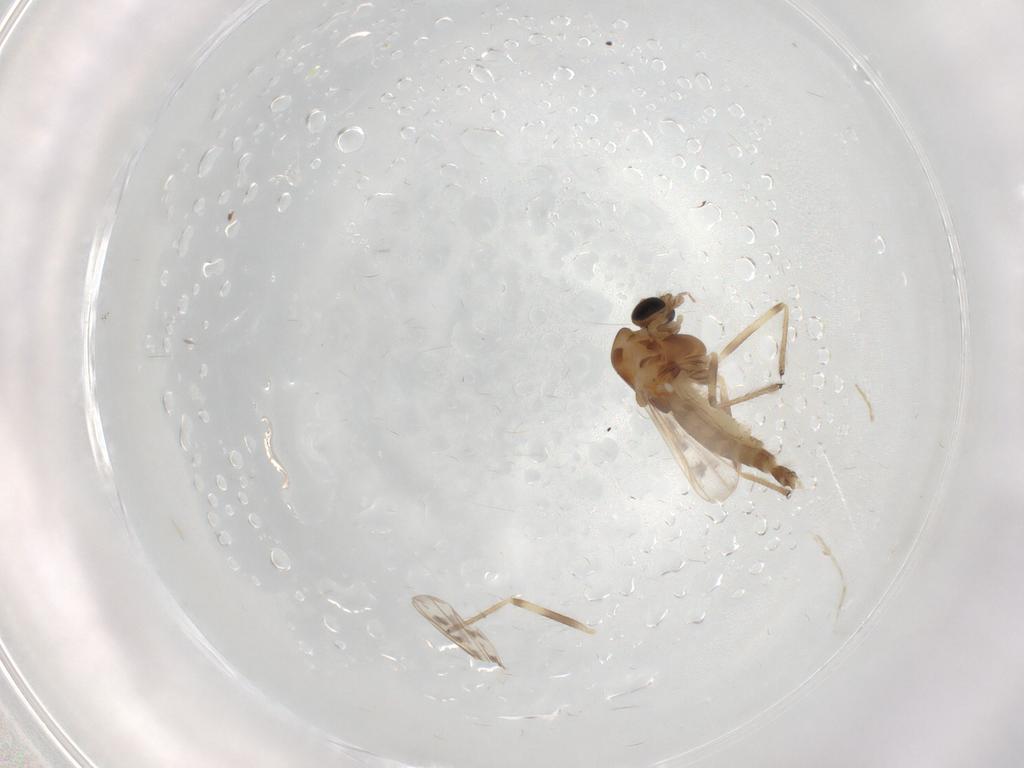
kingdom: Animalia
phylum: Arthropoda
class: Insecta
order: Diptera
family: Chironomidae
